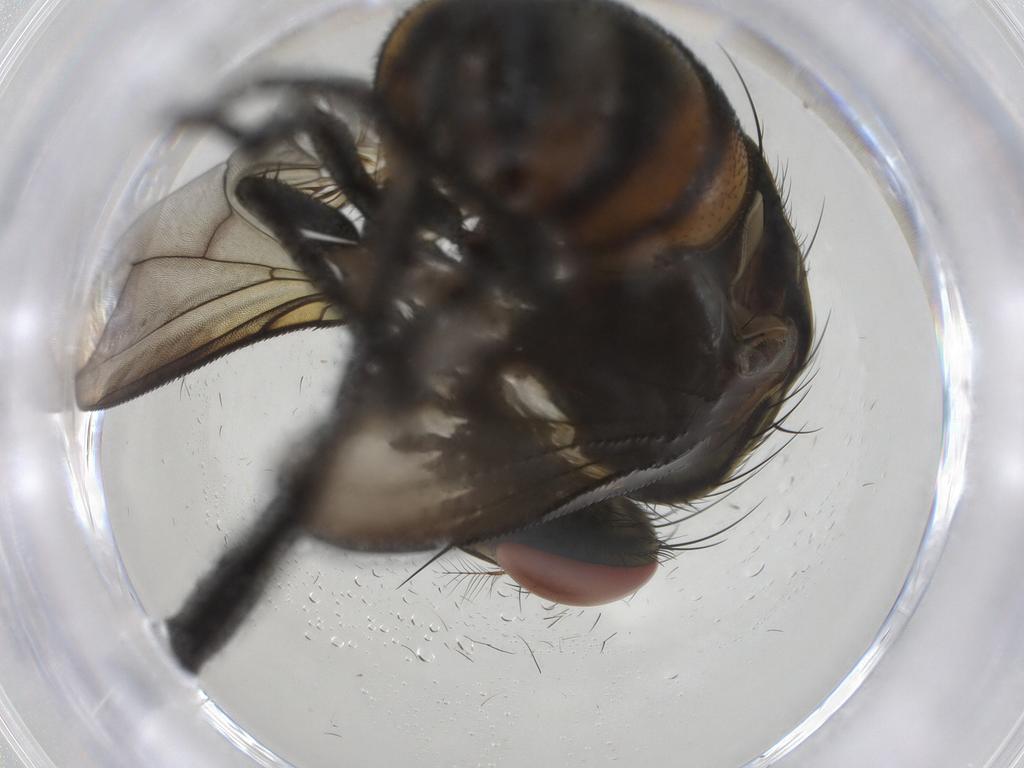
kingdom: Animalia
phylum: Arthropoda
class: Insecta
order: Diptera
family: Sarcophagidae
